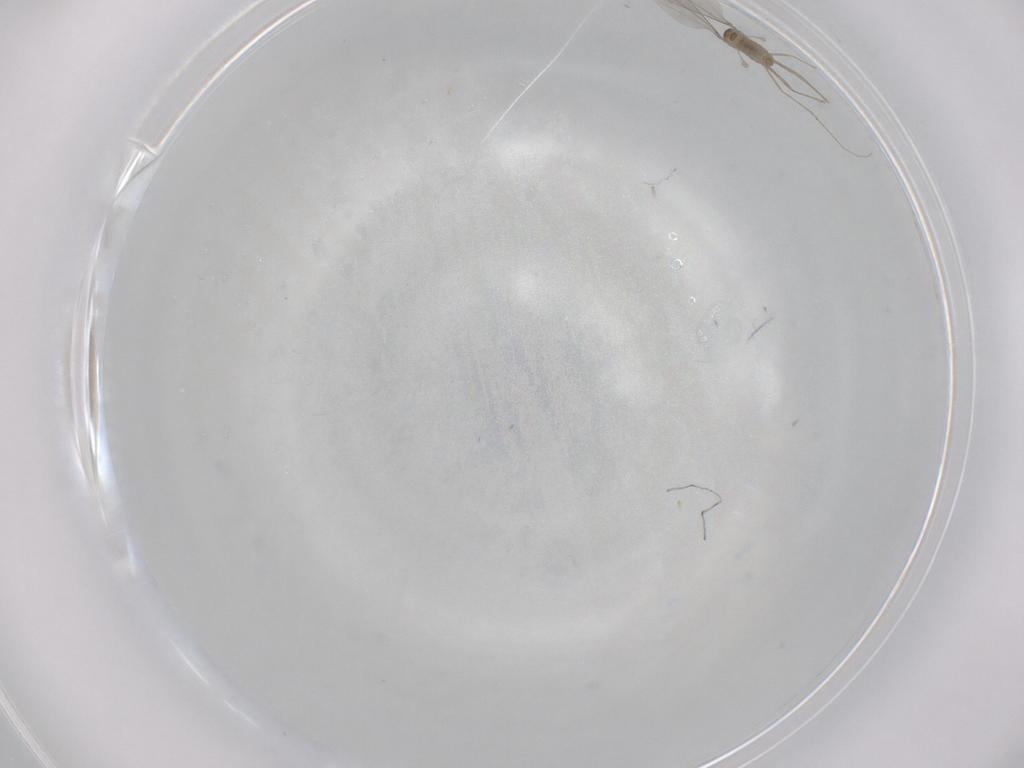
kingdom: Animalia
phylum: Arthropoda
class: Insecta
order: Diptera
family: Cecidomyiidae
